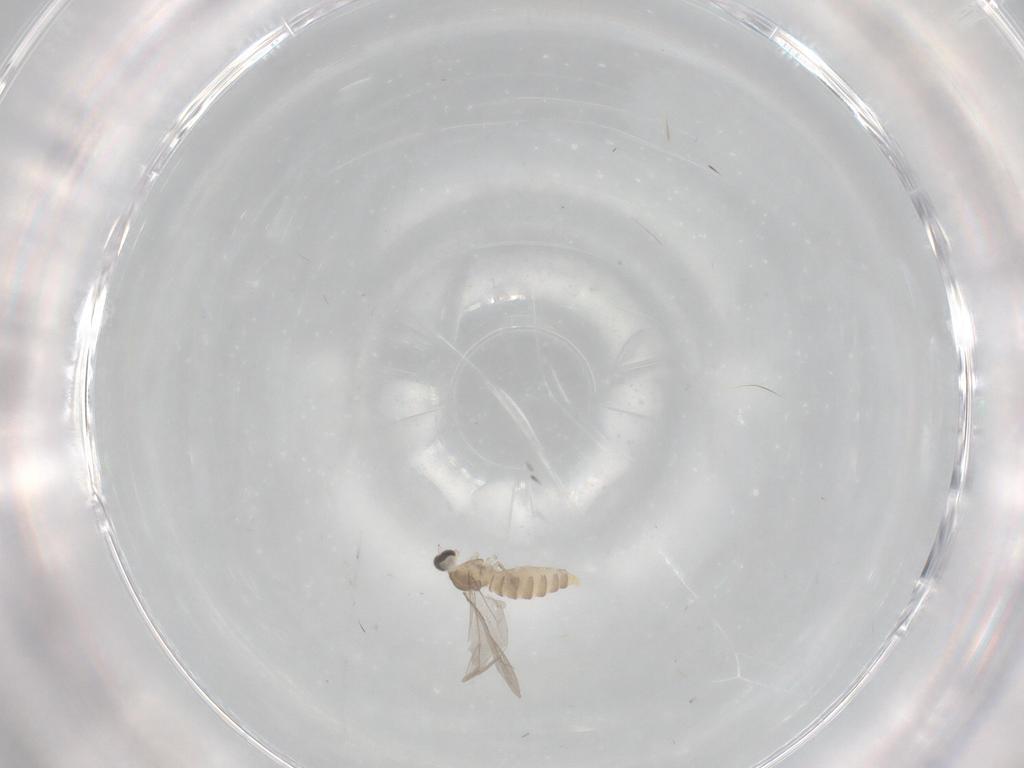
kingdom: Animalia
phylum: Arthropoda
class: Insecta
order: Diptera
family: Cecidomyiidae
